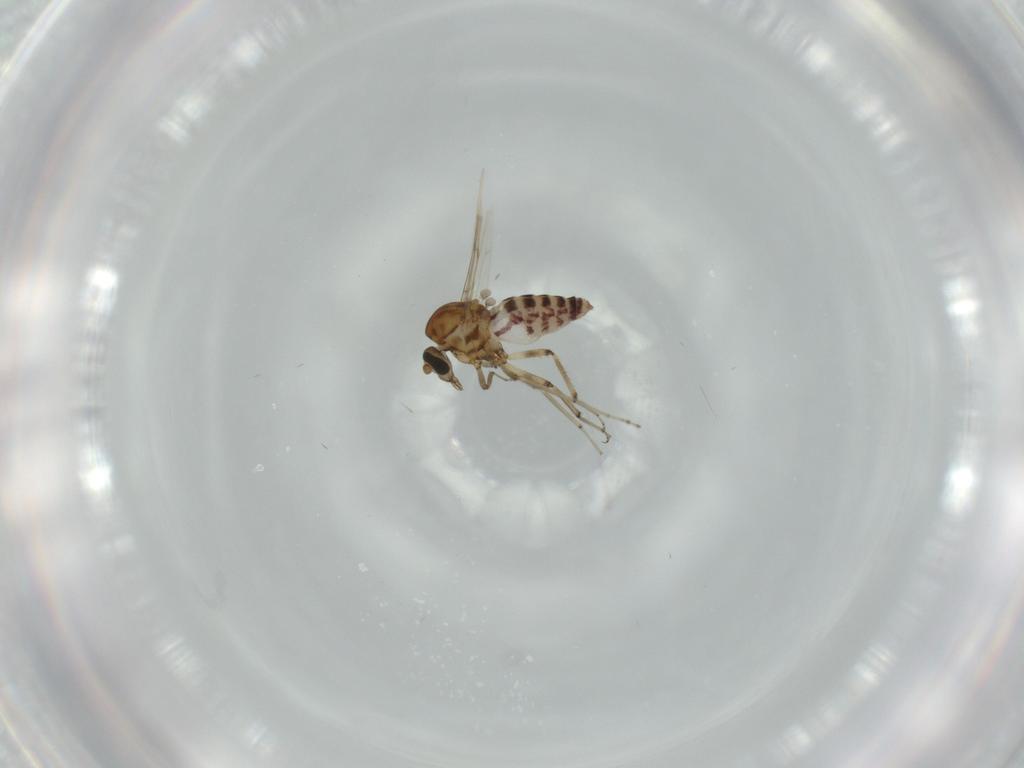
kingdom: Animalia
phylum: Arthropoda
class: Insecta
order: Diptera
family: Ceratopogonidae
